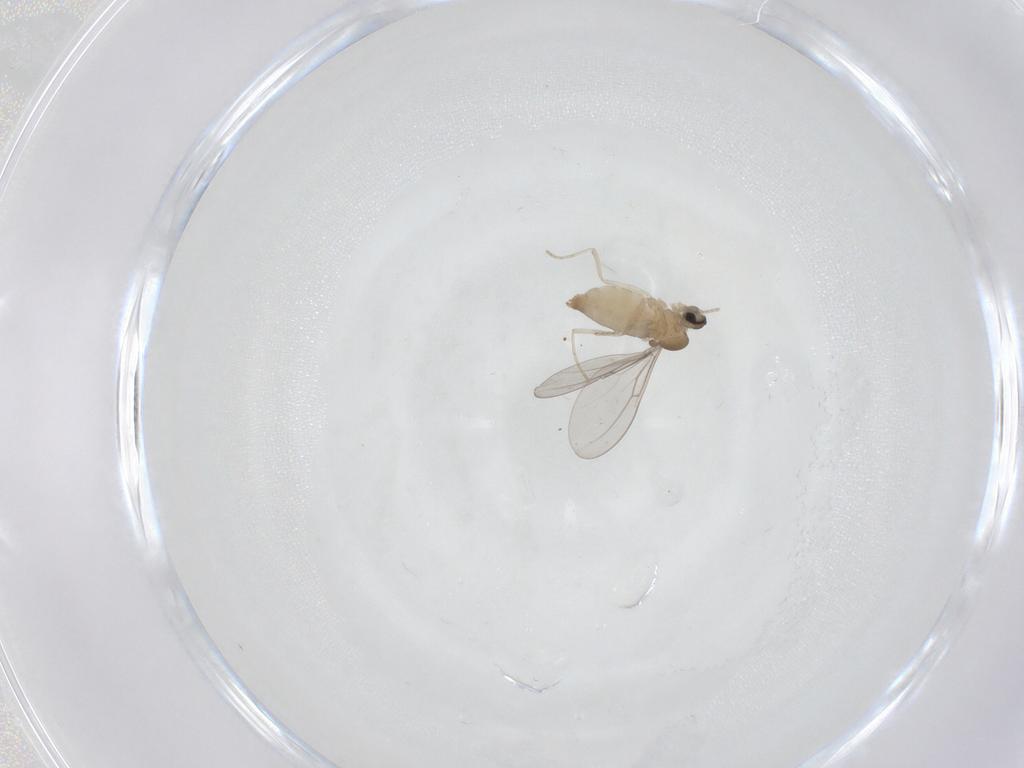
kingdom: Animalia
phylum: Arthropoda
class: Insecta
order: Diptera
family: Cecidomyiidae
